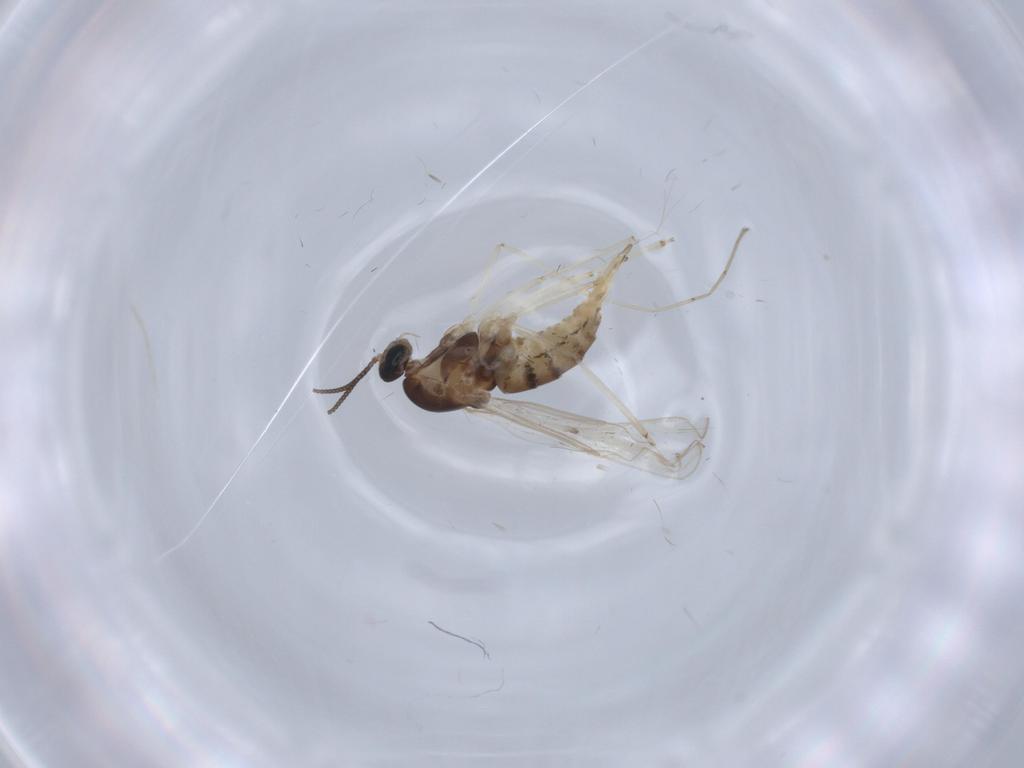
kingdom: Animalia
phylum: Arthropoda
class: Insecta
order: Diptera
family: Cecidomyiidae
